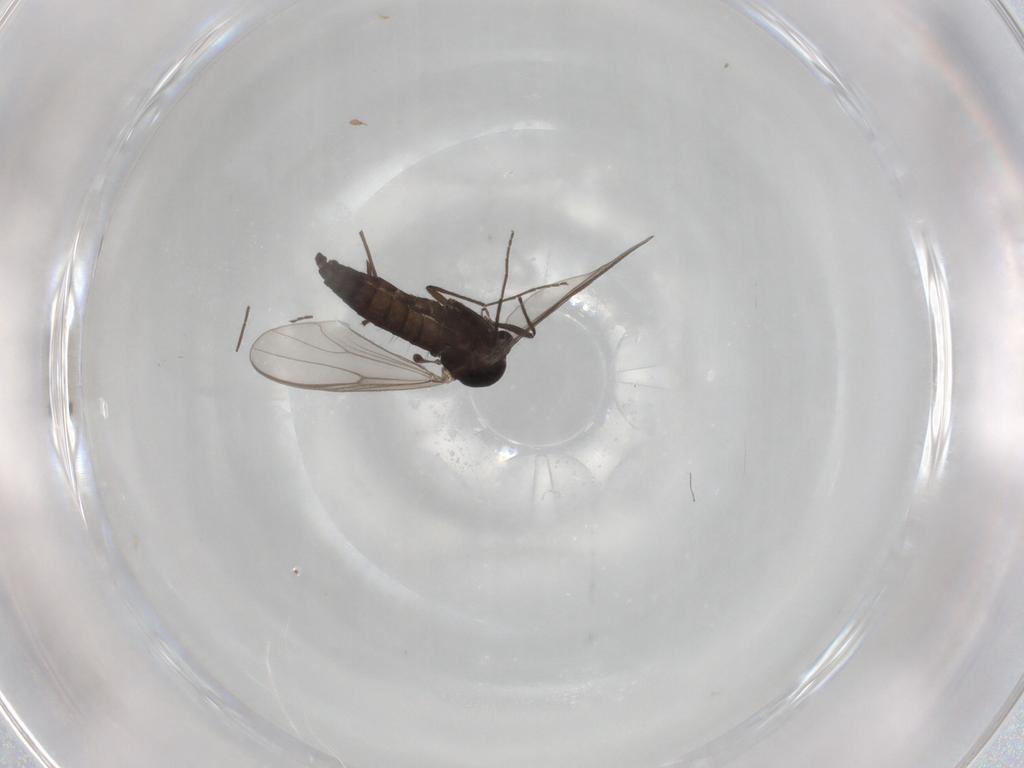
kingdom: Animalia
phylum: Arthropoda
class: Insecta
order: Diptera
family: Chironomidae
